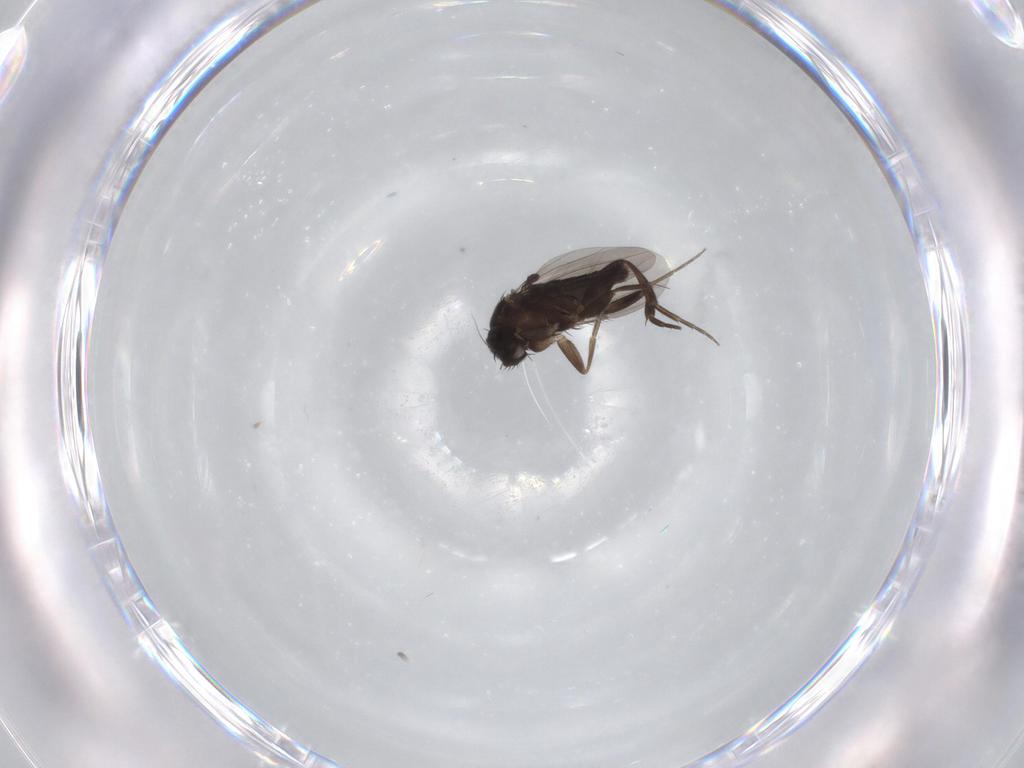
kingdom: Animalia
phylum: Arthropoda
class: Insecta
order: Diptera
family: Phoridae
